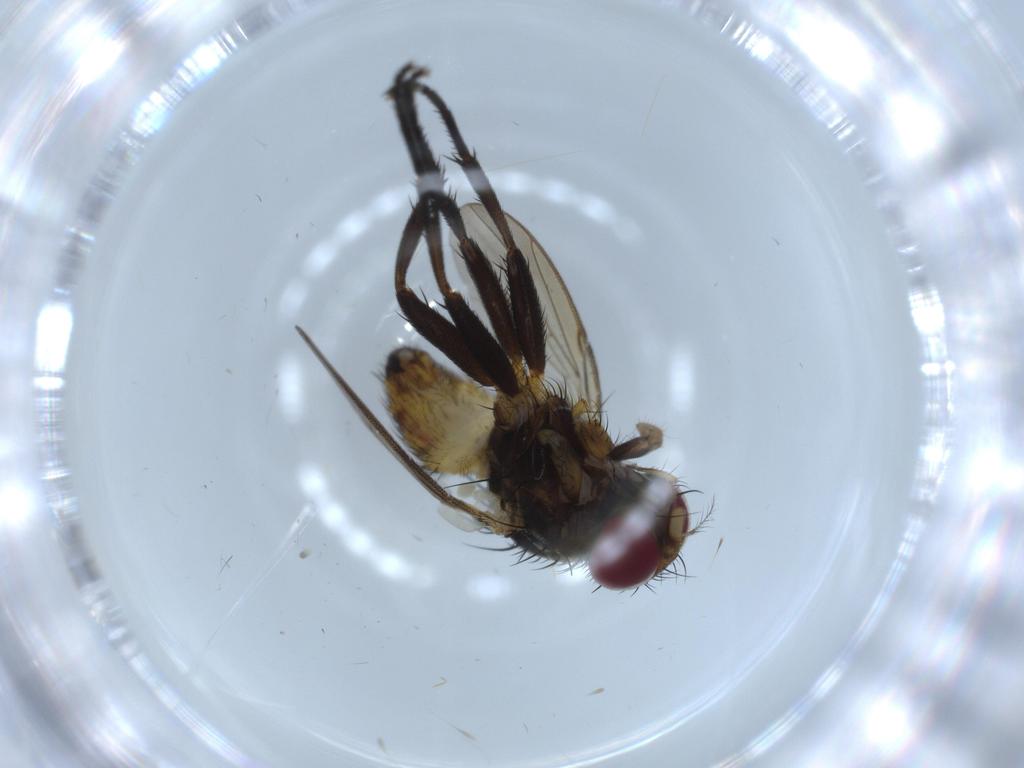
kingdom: Animalia
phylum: Arthropoda
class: Insecta
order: Diptera
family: Anthomyiidae
